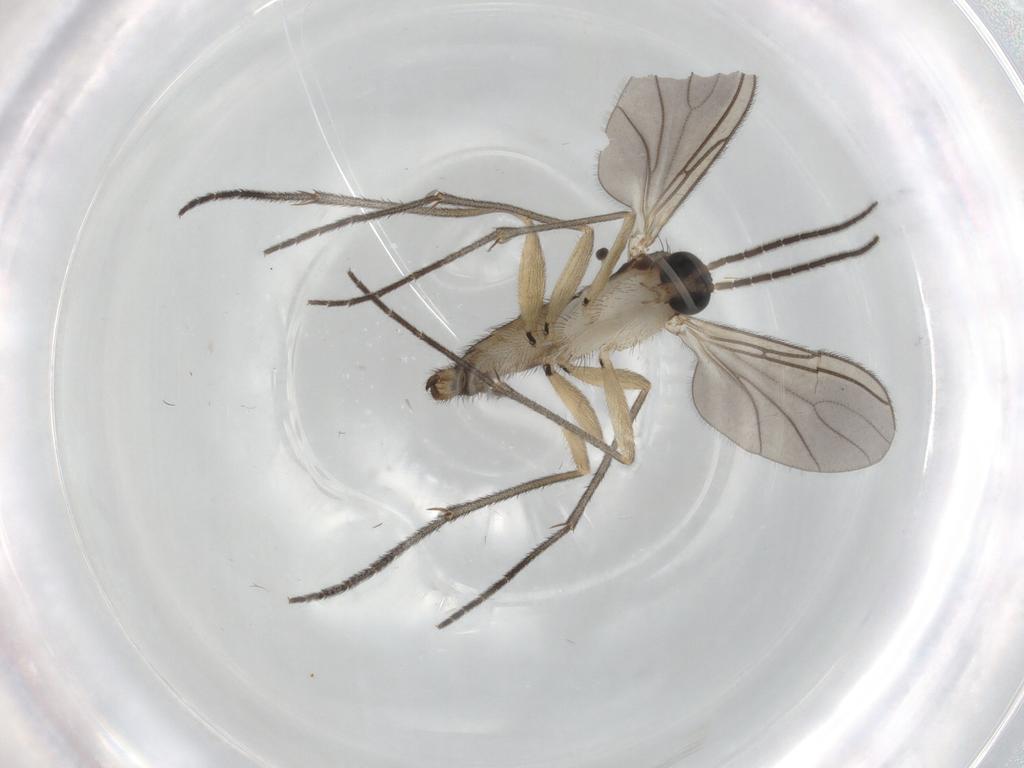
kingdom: Animalia
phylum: Arthropoda
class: Insecta
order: Diptera
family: Sciaridae
